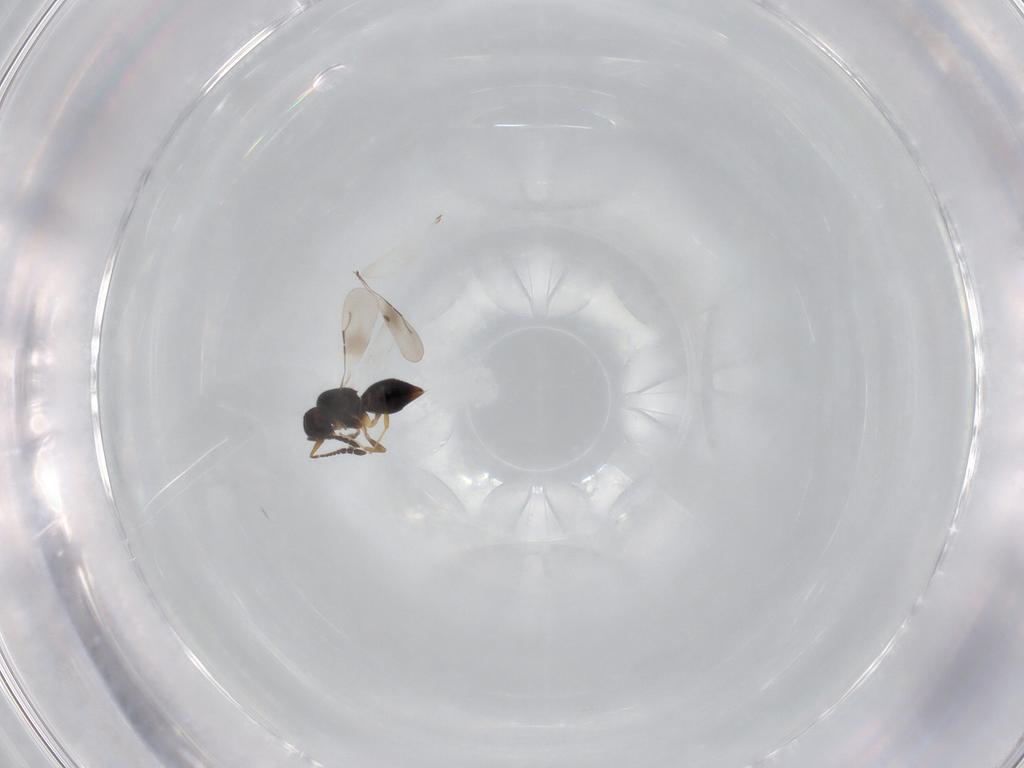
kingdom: Animalia
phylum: Arthropoda
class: Insecta
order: Hymenoptera
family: Ceraphronidae
